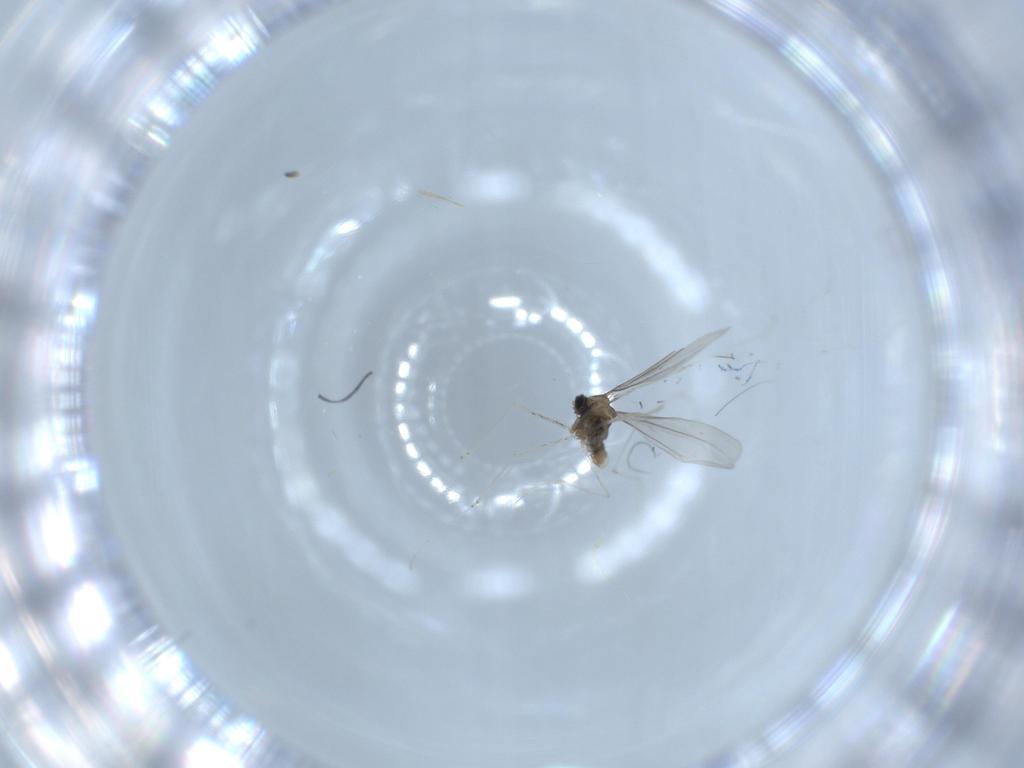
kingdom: Animalia
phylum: Arthropoda
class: Insecta
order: Diptera
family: Cecidomyiidae
